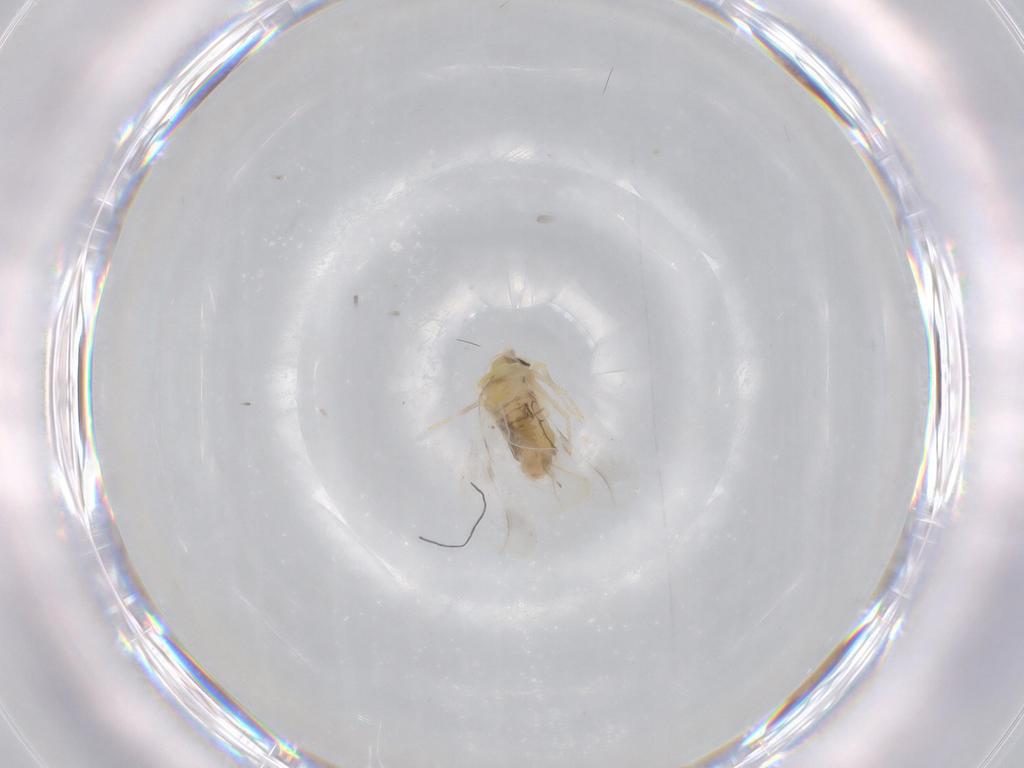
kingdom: Animalia
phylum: Arthropoda
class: Insecta
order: Hemiptera
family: Aleyrodidae
